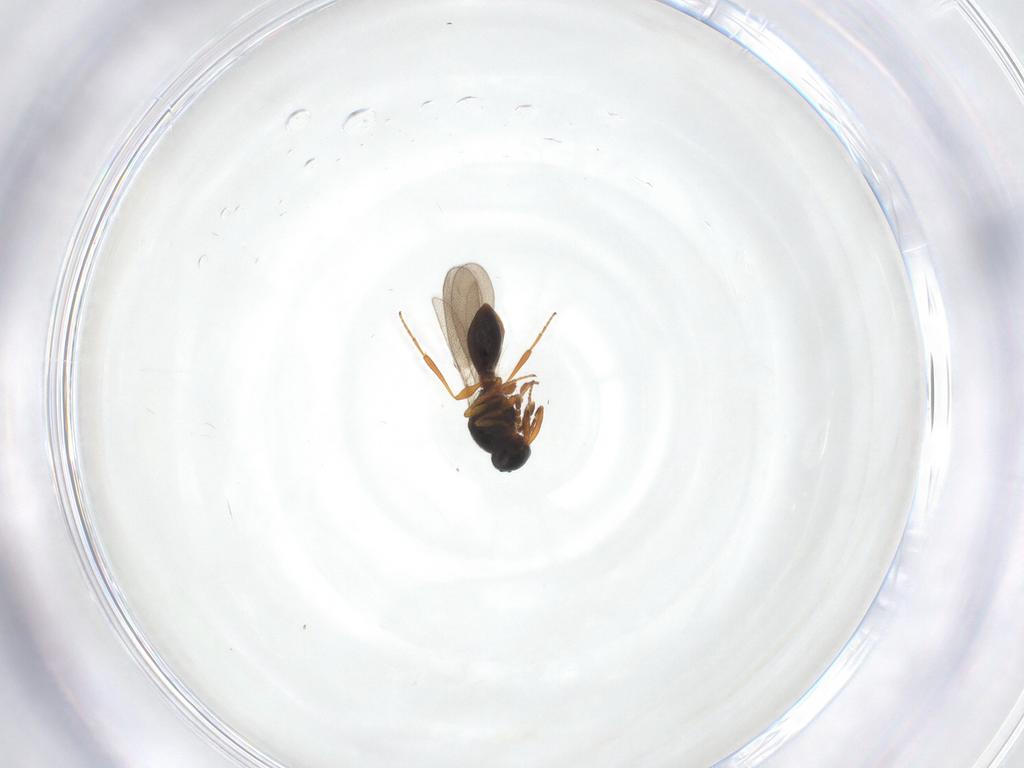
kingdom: Animalia
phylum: Arthropoda
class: Insecta
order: Hymenoptera
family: Platygastridae
